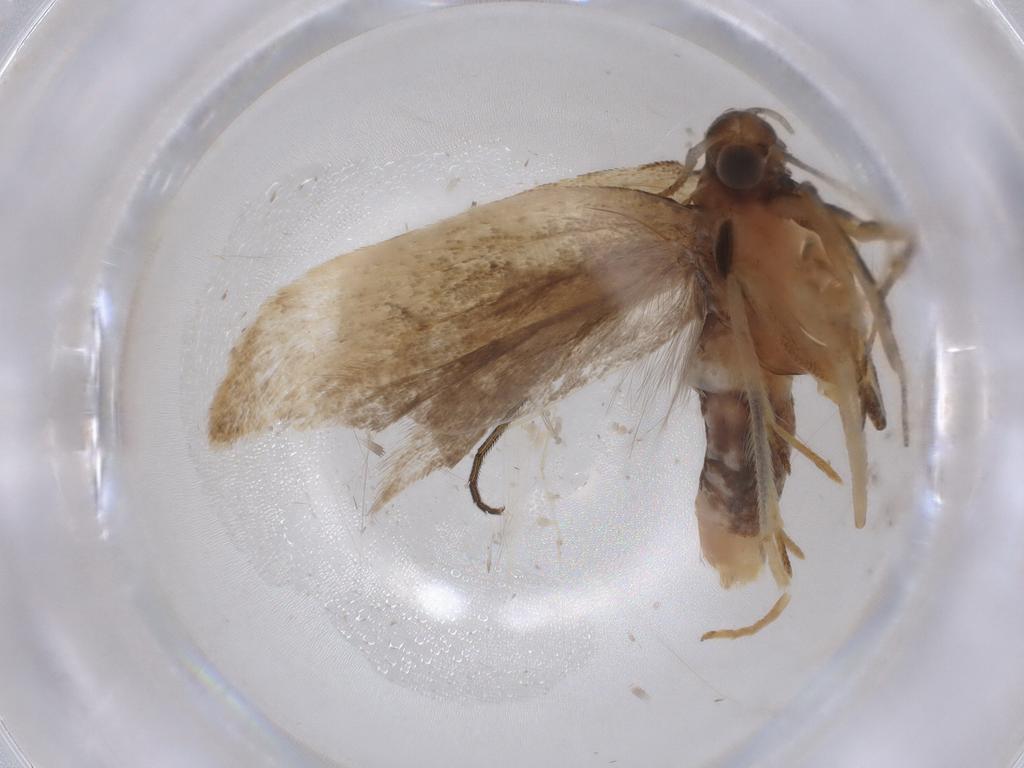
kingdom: Animalia
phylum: Arthropoda
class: Insecta
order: Lepidoptera
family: Gelechiidae
